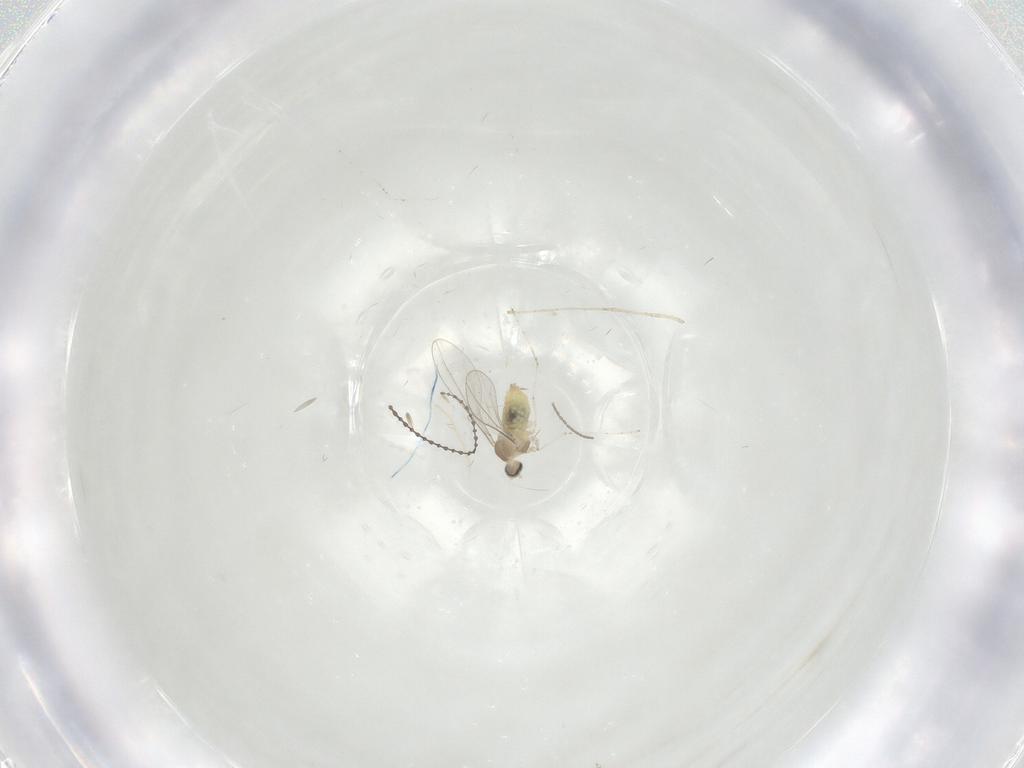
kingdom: Animalia
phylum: Arthropoda
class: Insecta
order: Diptera
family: Cecidomyiidae
